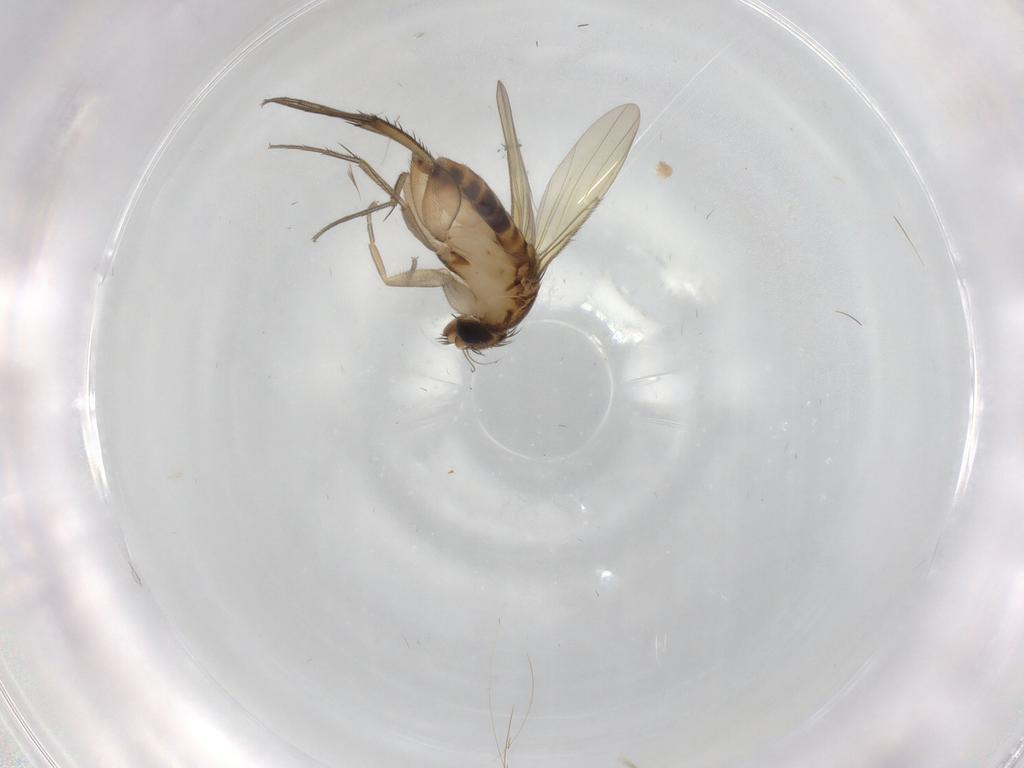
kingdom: Animalia
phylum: Arthropoda
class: Insecta
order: Diptera
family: Phoridae
